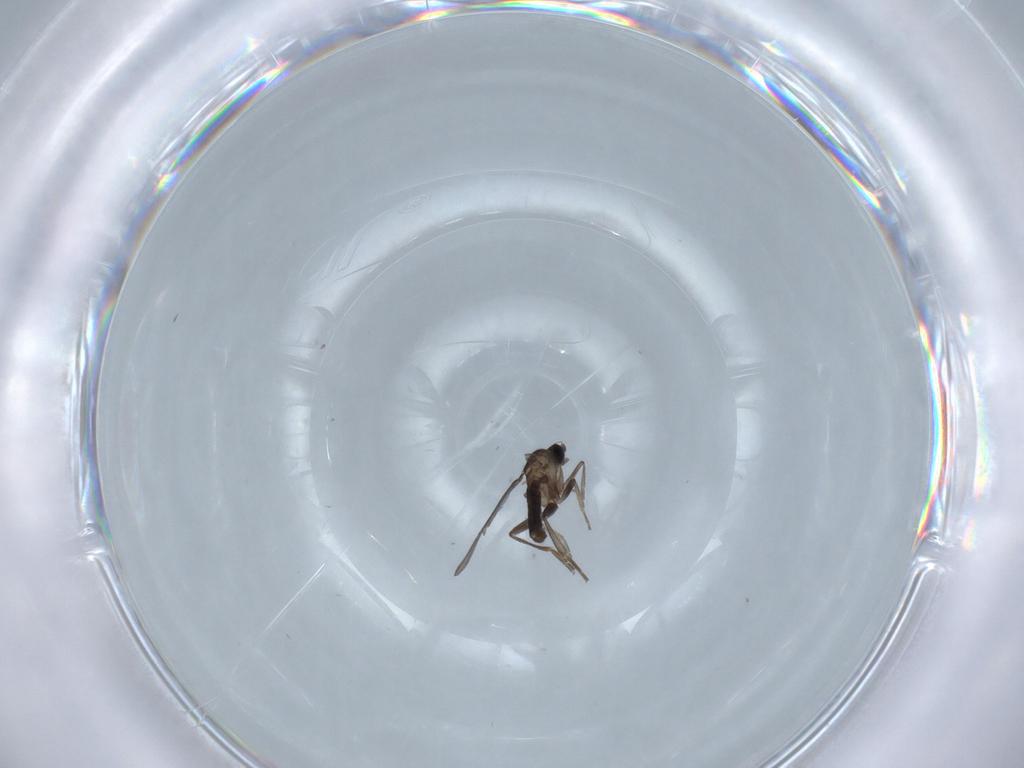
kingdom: Animalia
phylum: Arthropoda
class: Insecta
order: Diptera
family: Phoridae
